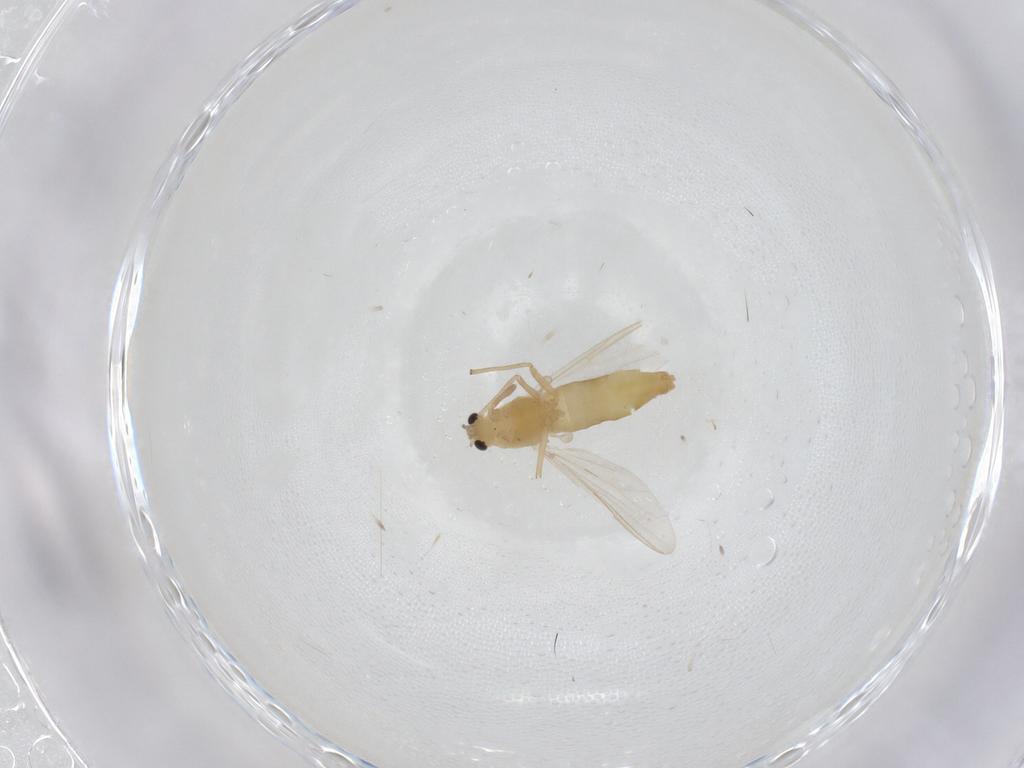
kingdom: Animalia
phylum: Arthropoda
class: Insecta
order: Diptera
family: Chironomidae
